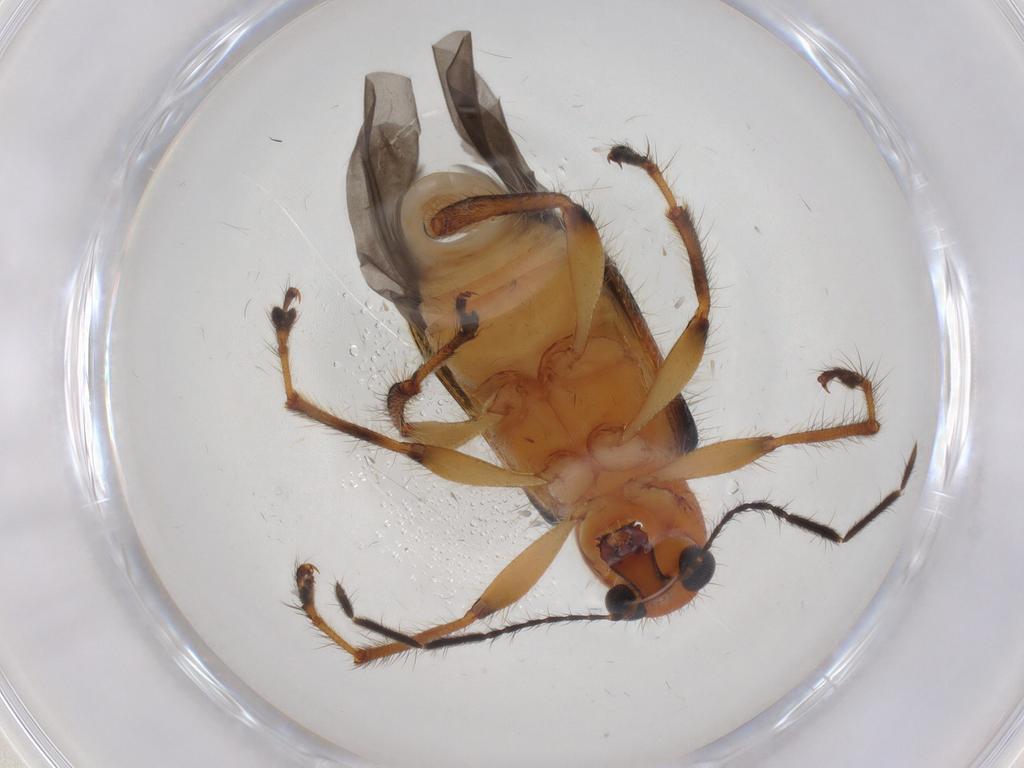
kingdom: Animalia
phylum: Arthropoda
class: Insecta
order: Coleoptera
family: Attelabidae
